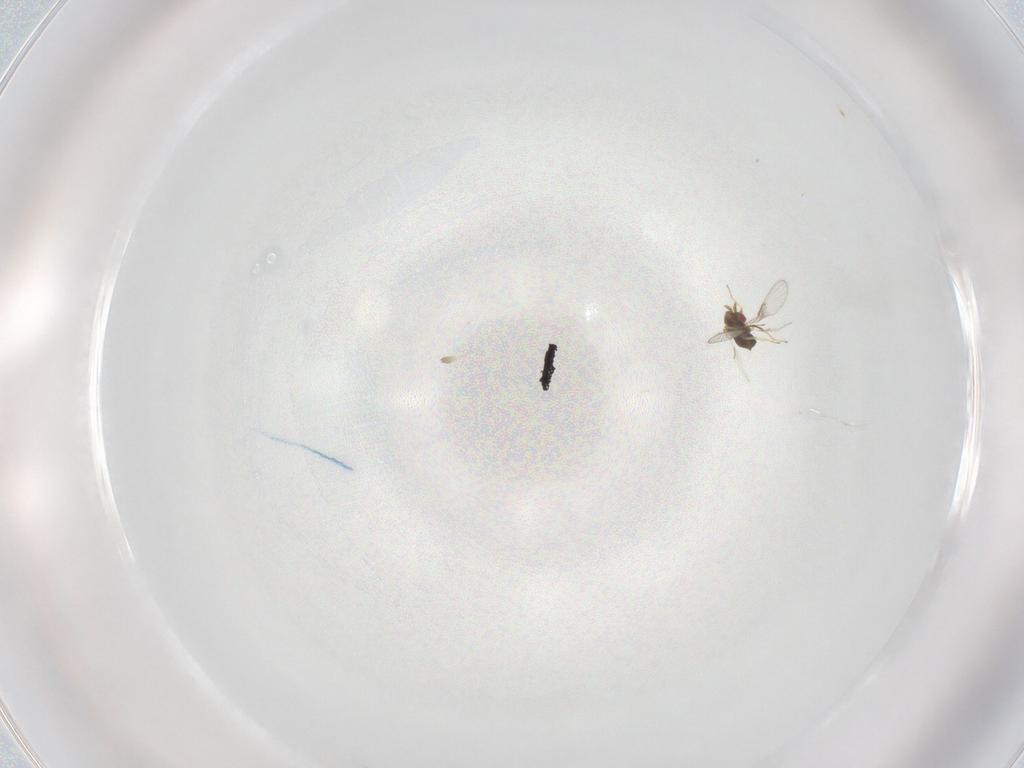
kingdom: Animalia
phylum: Arthropoda
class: Insecta
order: Hymenoptera
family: Trichogrammatidae
